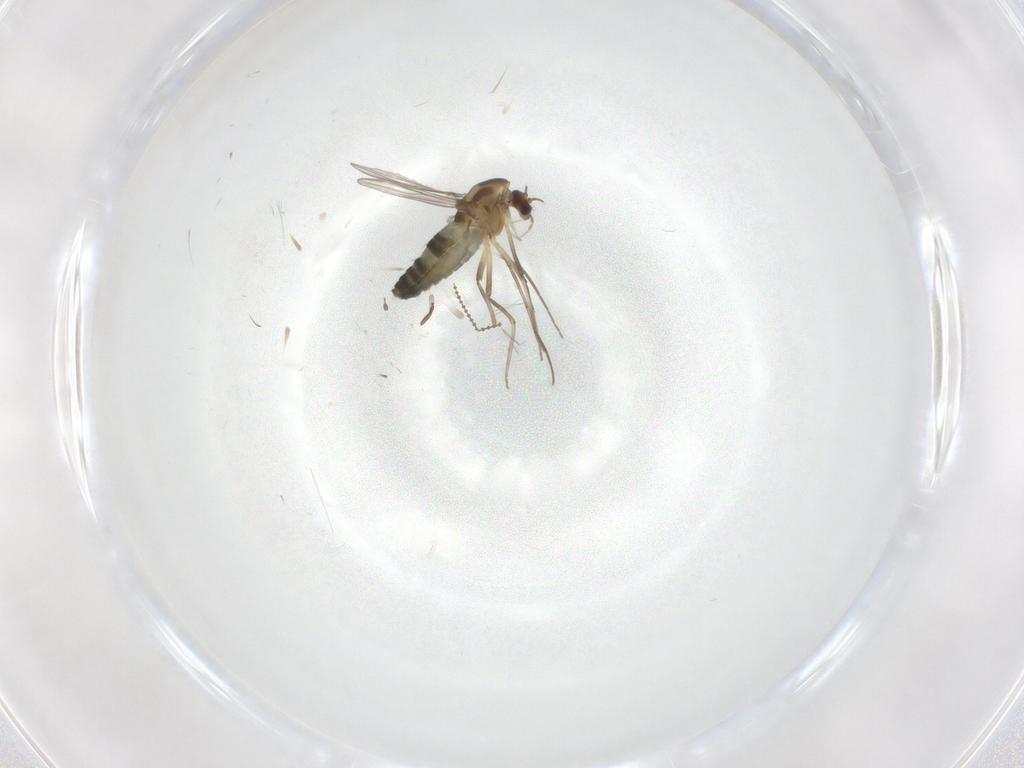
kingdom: Animalia
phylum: Arthropoda
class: Insecta
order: Diptera
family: Chironomidae
